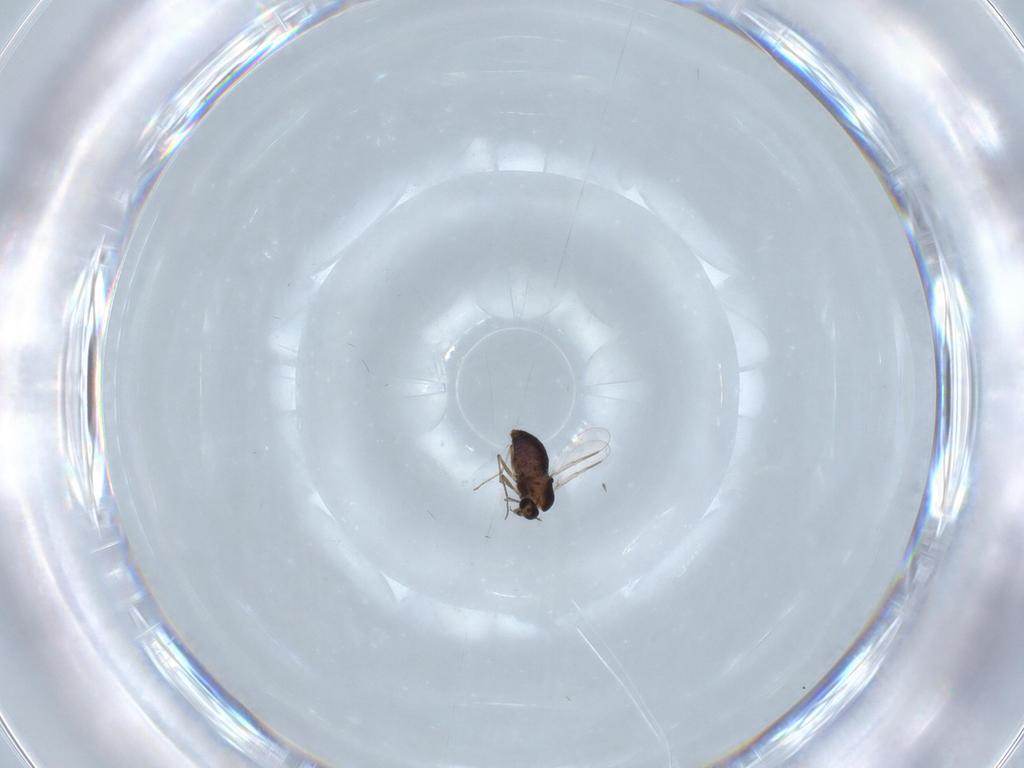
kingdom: Animalia
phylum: Arthropoda
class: Insecta
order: Diptera
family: Chironomidae
